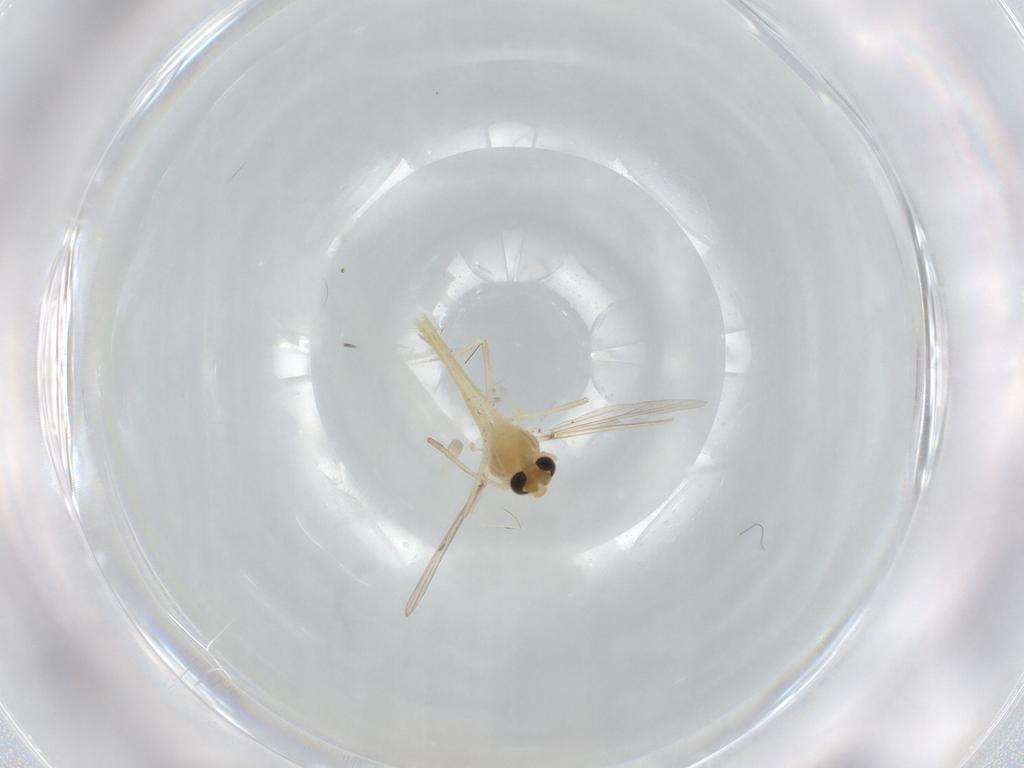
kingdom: Animalia
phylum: Arthropoda
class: Insecta
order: Diptera
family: Chironomidae
